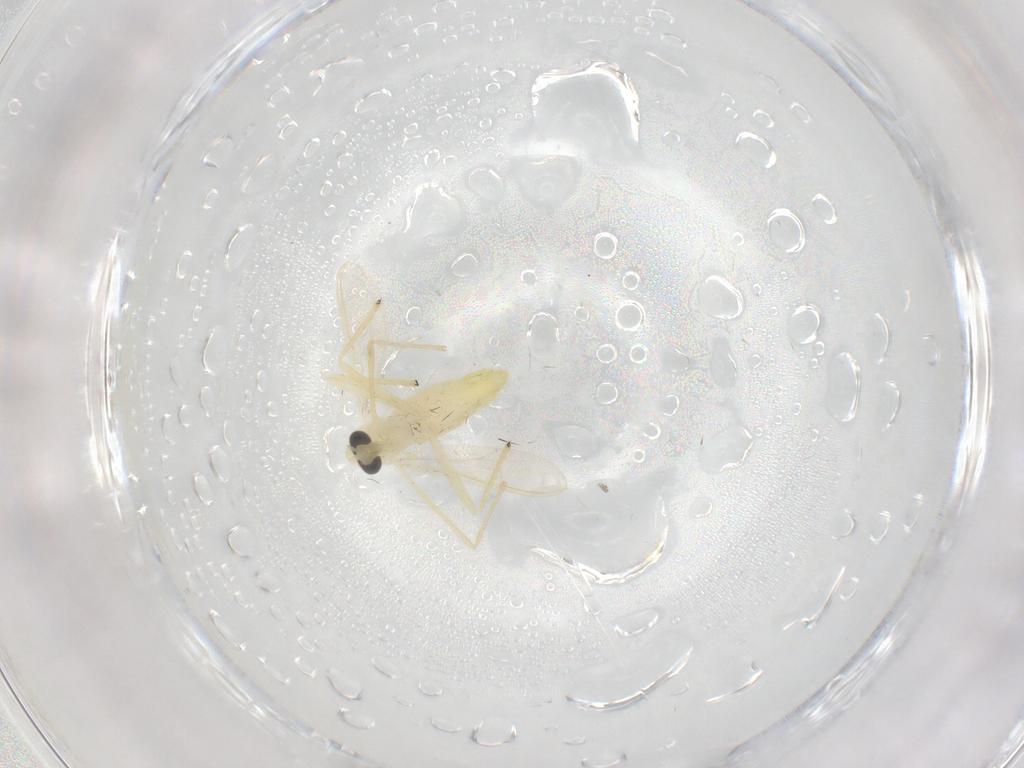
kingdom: Animalia
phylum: Arthropoda
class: Insecta
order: Diptera
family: Chironomidae
